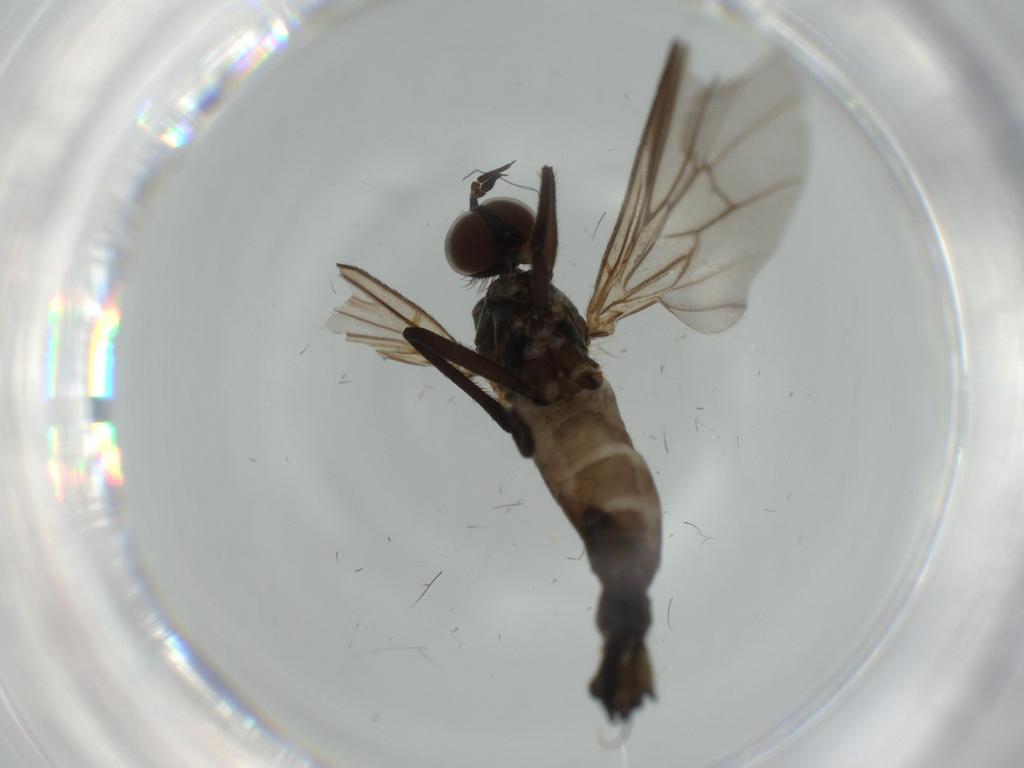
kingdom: Animalia
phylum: Arthropoda
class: Insecta
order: Diptera
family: Empididae
